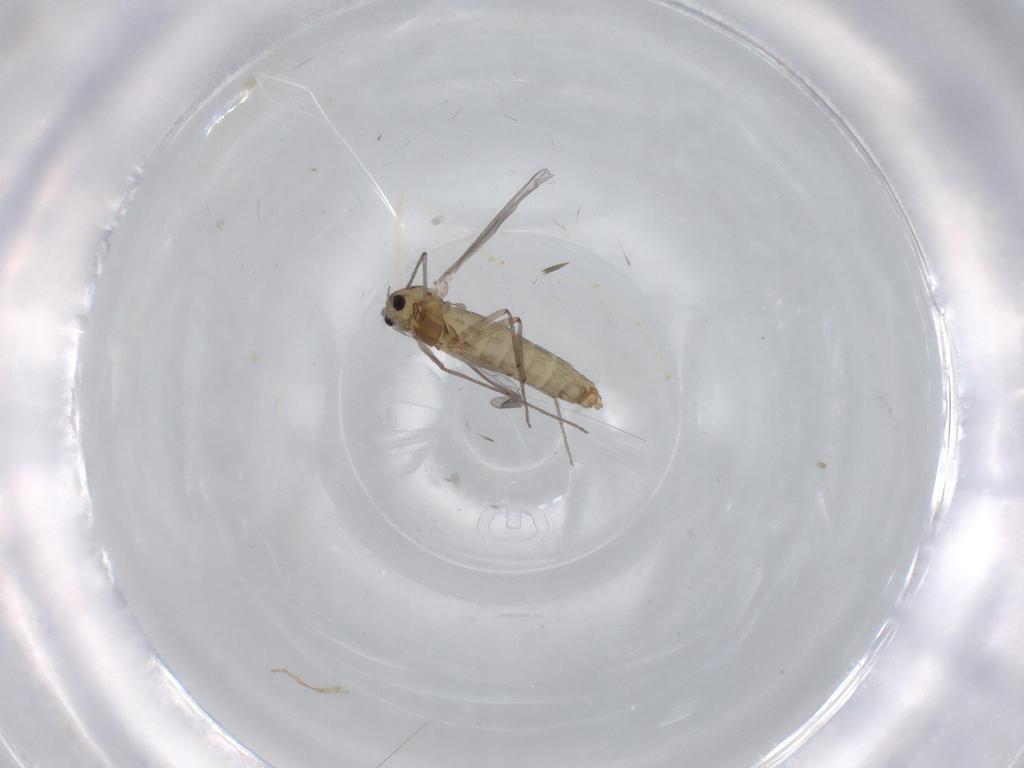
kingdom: Animalia
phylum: Arthropoda
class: Insecta
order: Diptera
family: Chironomidae
